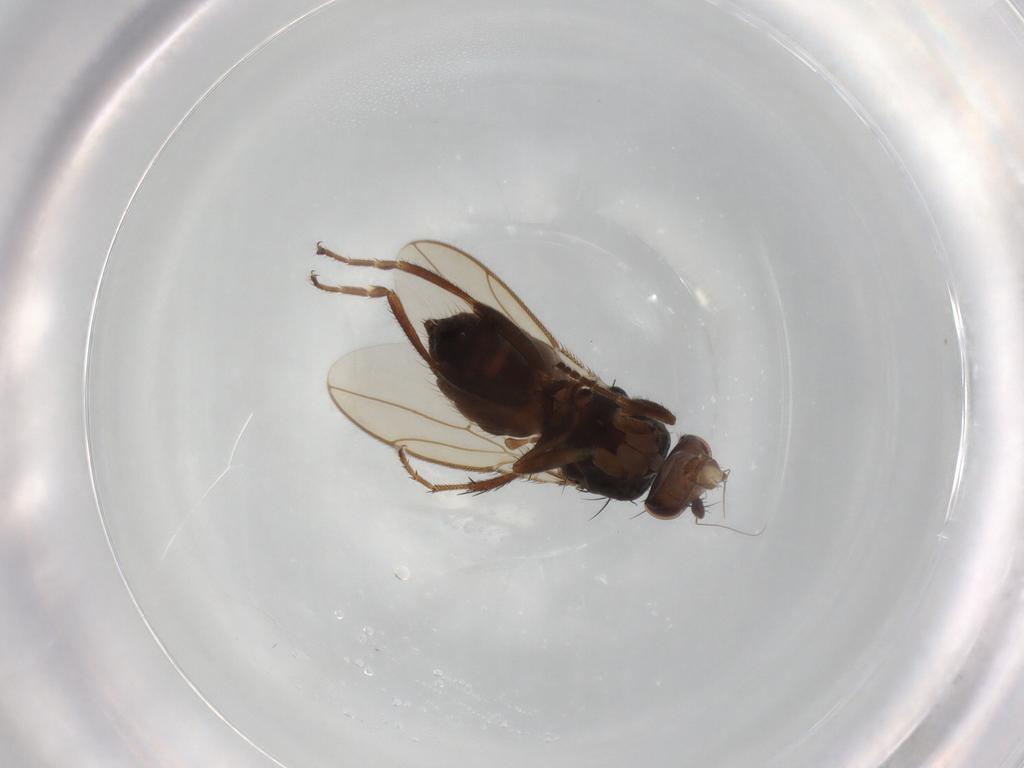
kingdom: Animalia
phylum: Arthropoda
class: Insecta
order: Diptera
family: Sphaeroceridae
